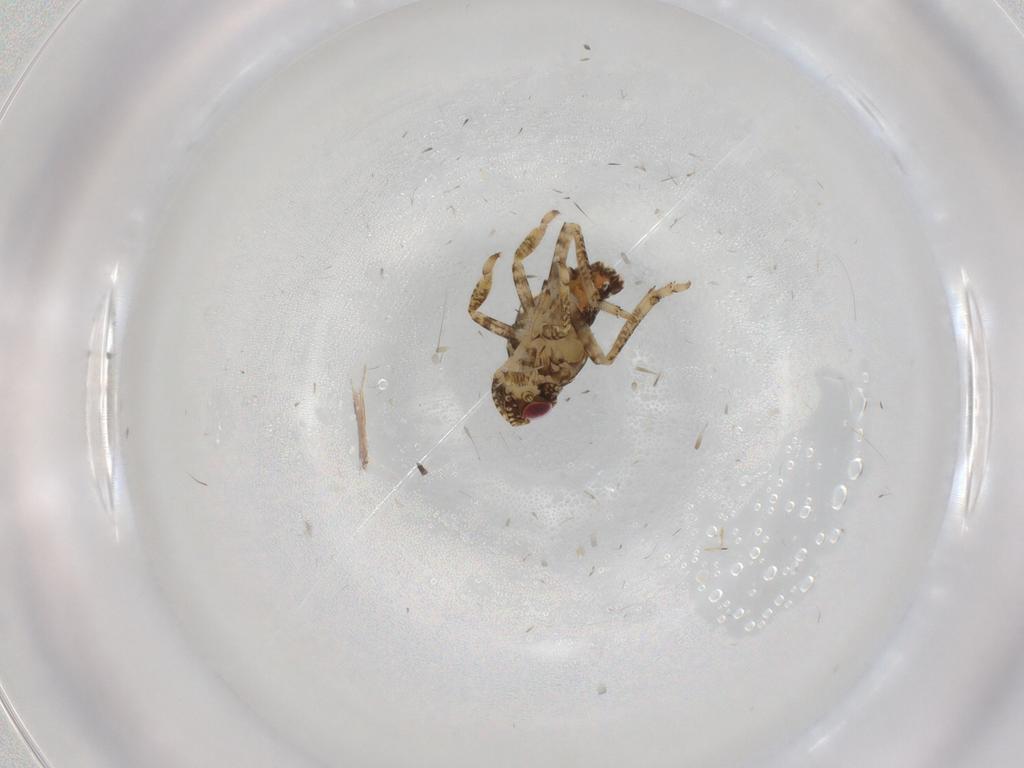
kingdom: Animalia
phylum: Arthropoda
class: Insecta
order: Hemiptera
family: Issidae
